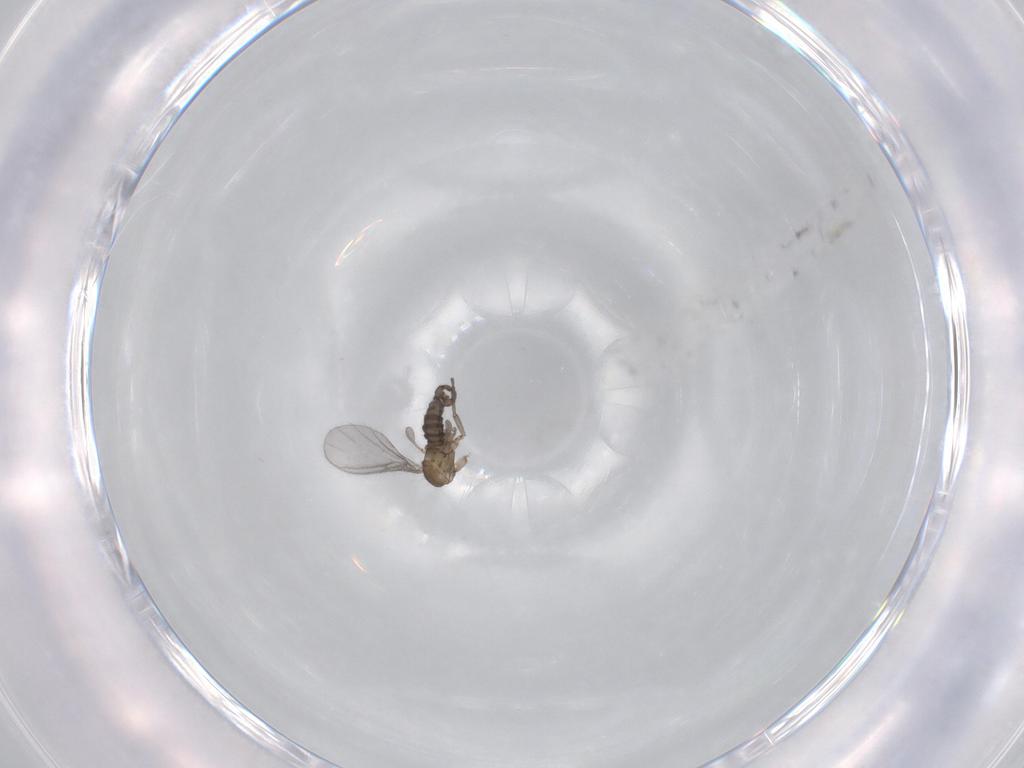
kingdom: Animalia
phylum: Arthropoda
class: Insecta
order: Diptera
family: Sciaridae
